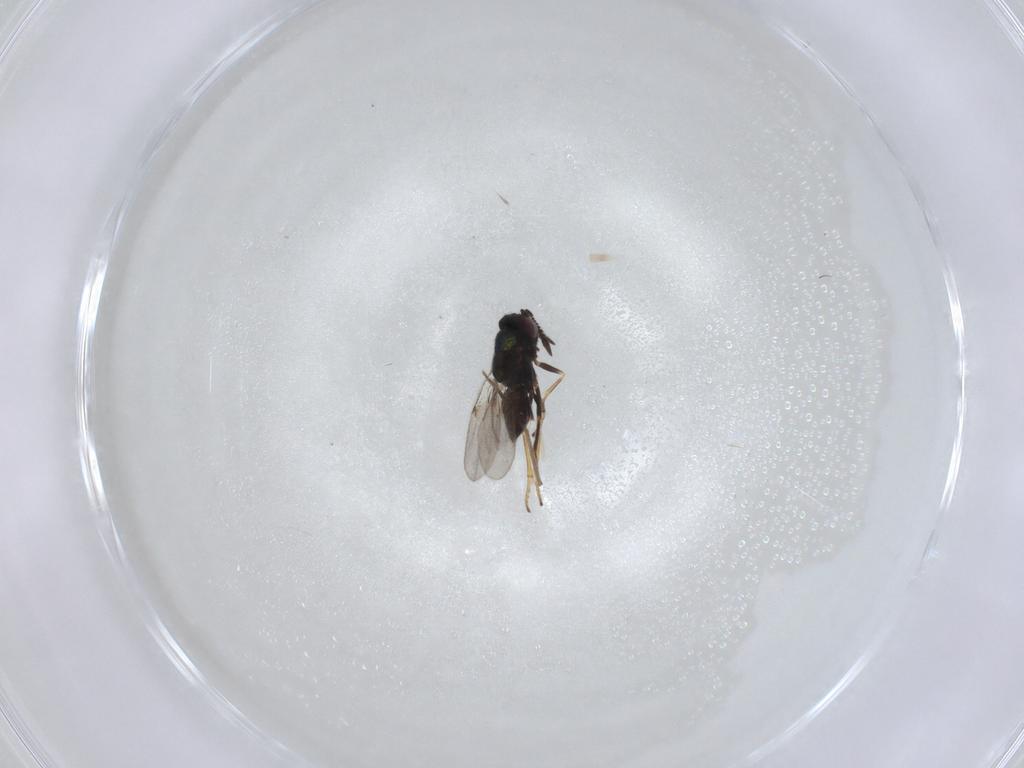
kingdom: Animalia
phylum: Arthropoda
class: Insecta
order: Hymenoptera
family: Encyrtidae
